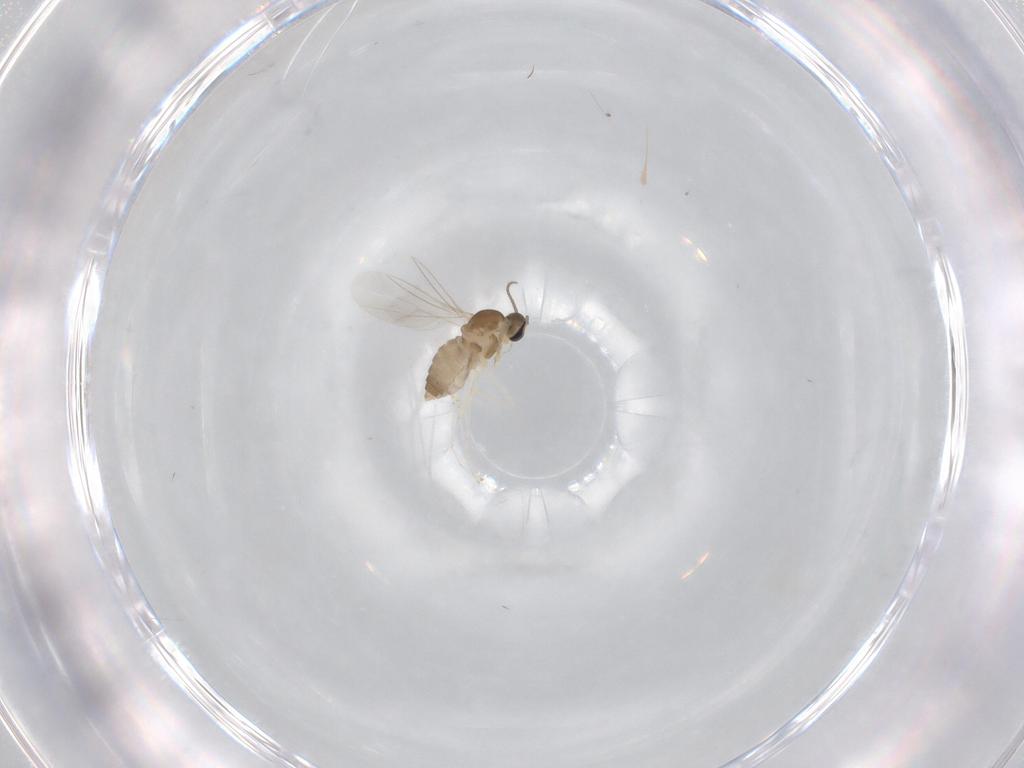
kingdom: Animalia
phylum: Arthropoda
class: Insecta
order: Diptera
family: Cecidomyiidae
